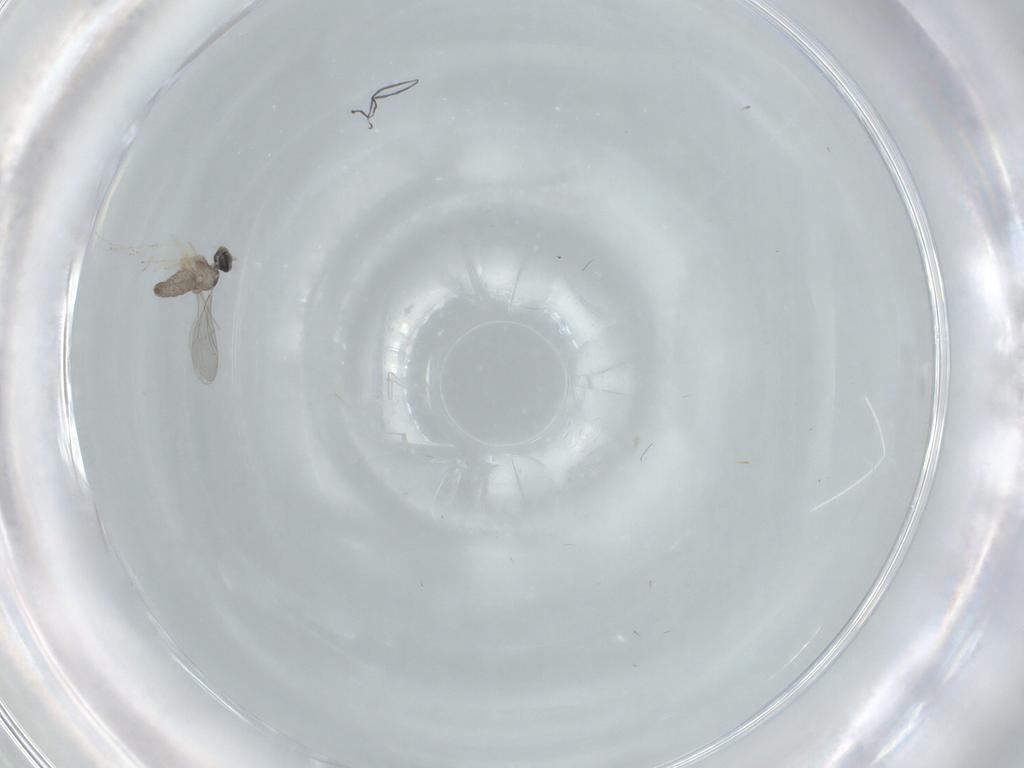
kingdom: Animalia
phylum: Arthropoda
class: Insecta
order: Diptera
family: Cecidomyiidae
